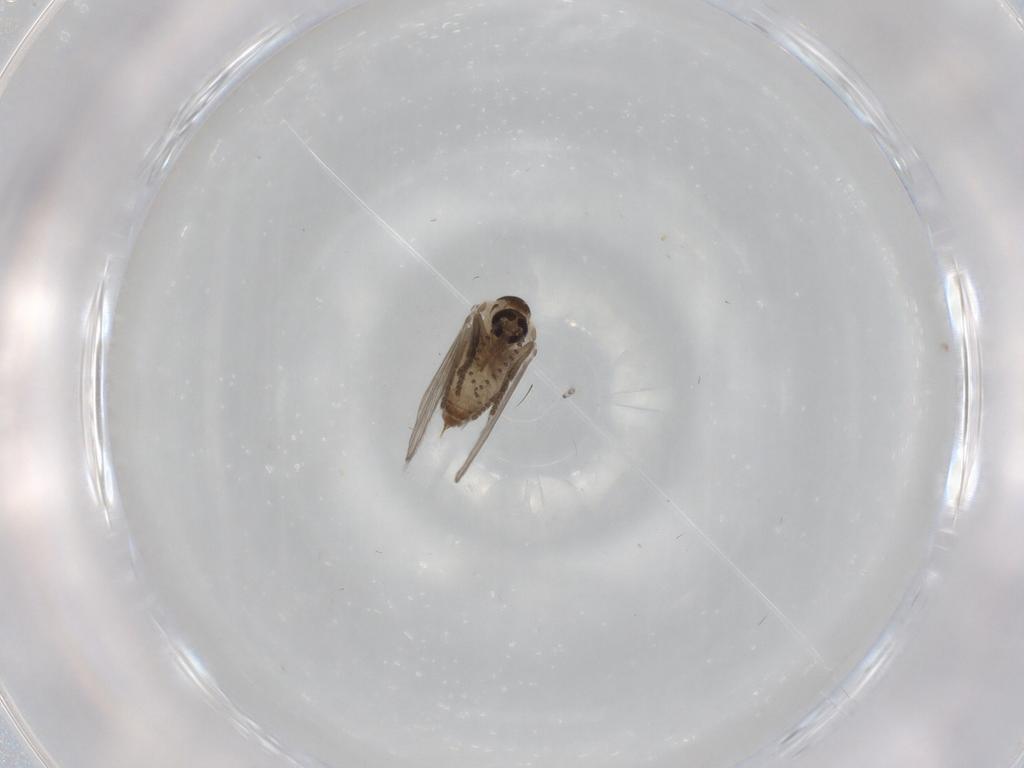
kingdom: Animalia
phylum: Arthropoda
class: Insecta
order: Diptera
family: Psychodidae
